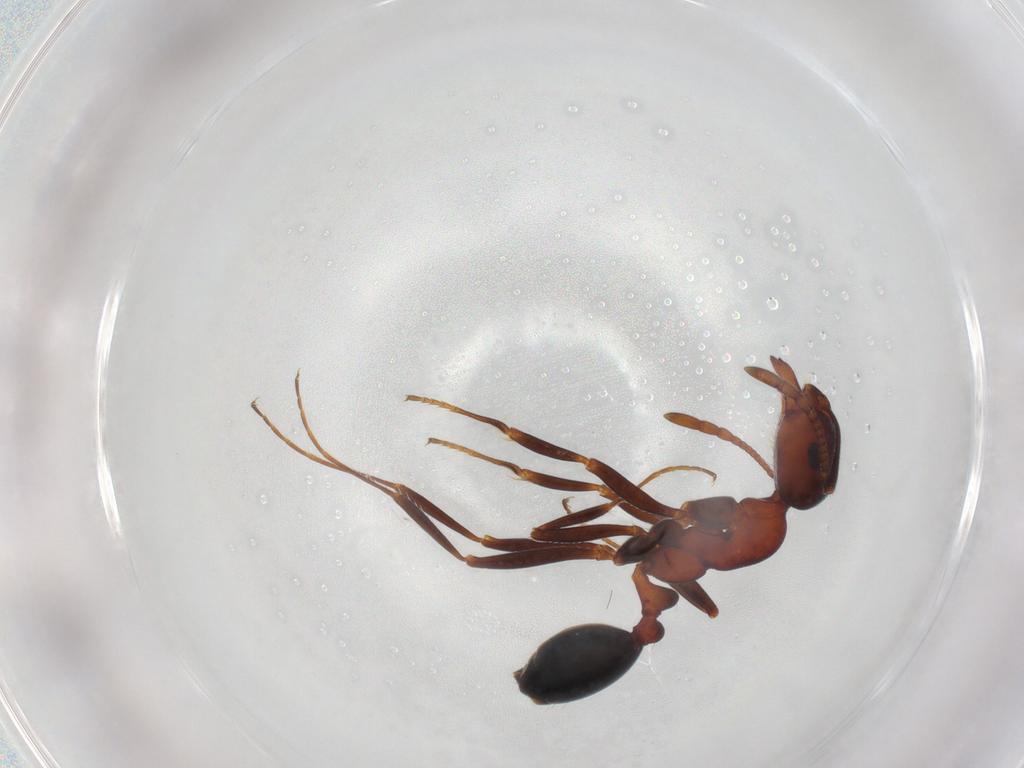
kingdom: Animalia
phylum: Arthropoda
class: Insecta
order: Hymenoptera
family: Formicidae
